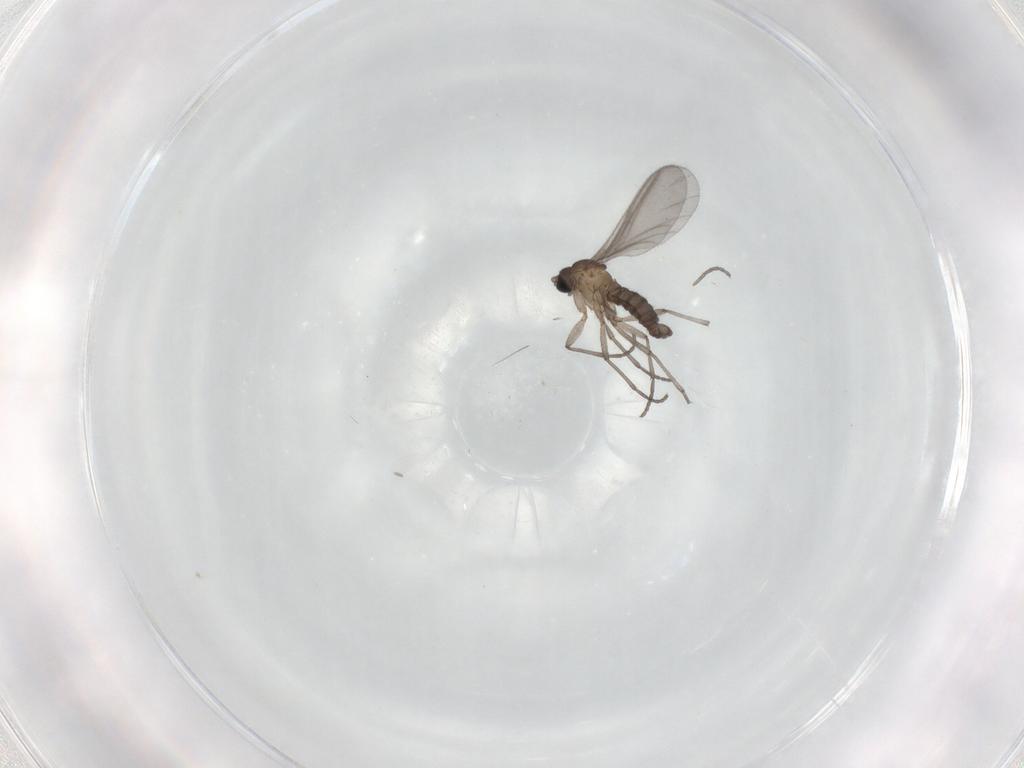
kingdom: Animalia
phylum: Arthropoda
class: Insecta
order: Diptera
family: Sciaridae
